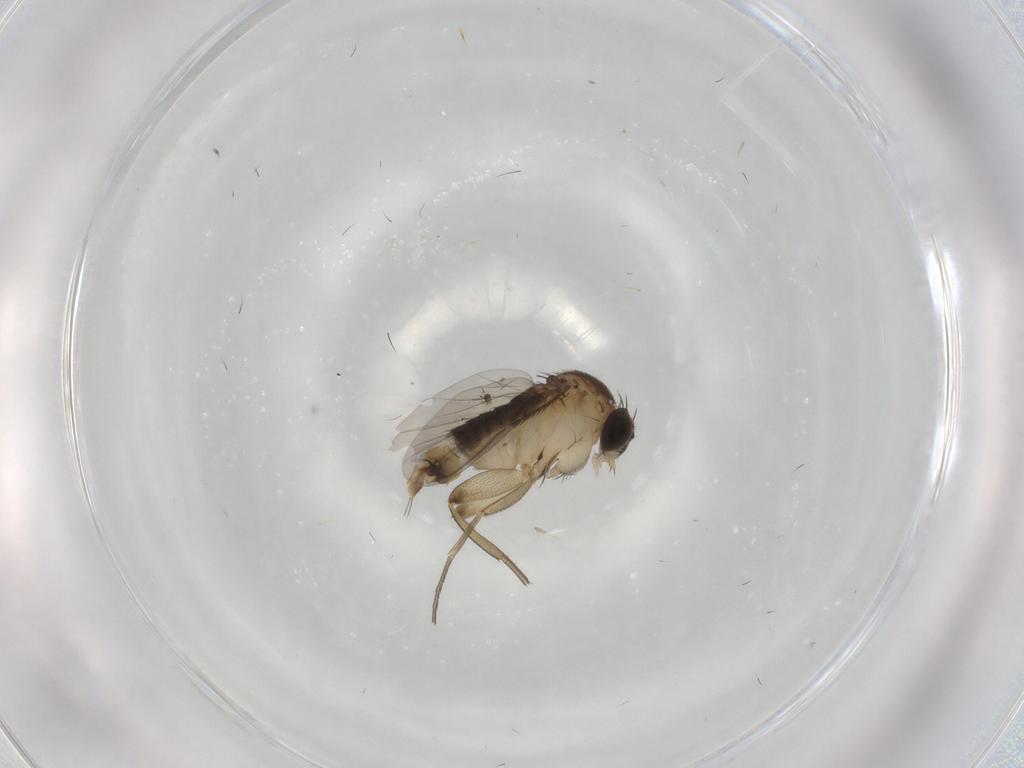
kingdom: Animalia
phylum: Arthropoda
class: Insecta
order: Diptera
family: Phoridae
